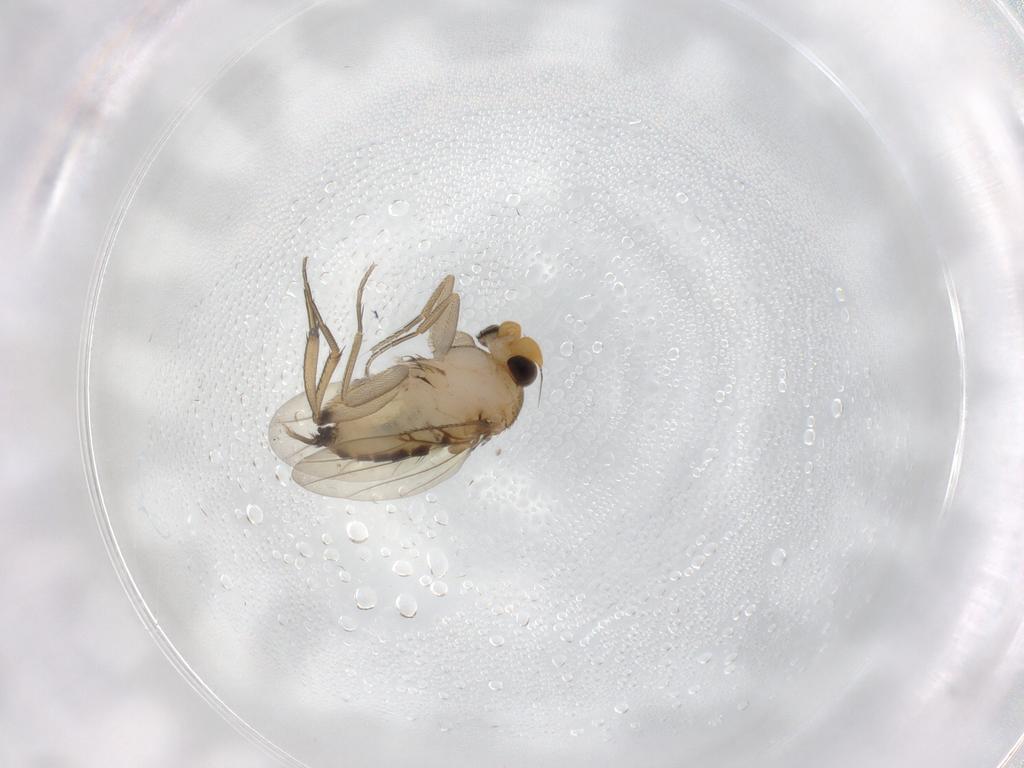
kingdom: Animalia
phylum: Arthropoda
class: Insecta
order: Diptera
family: Phoridae
